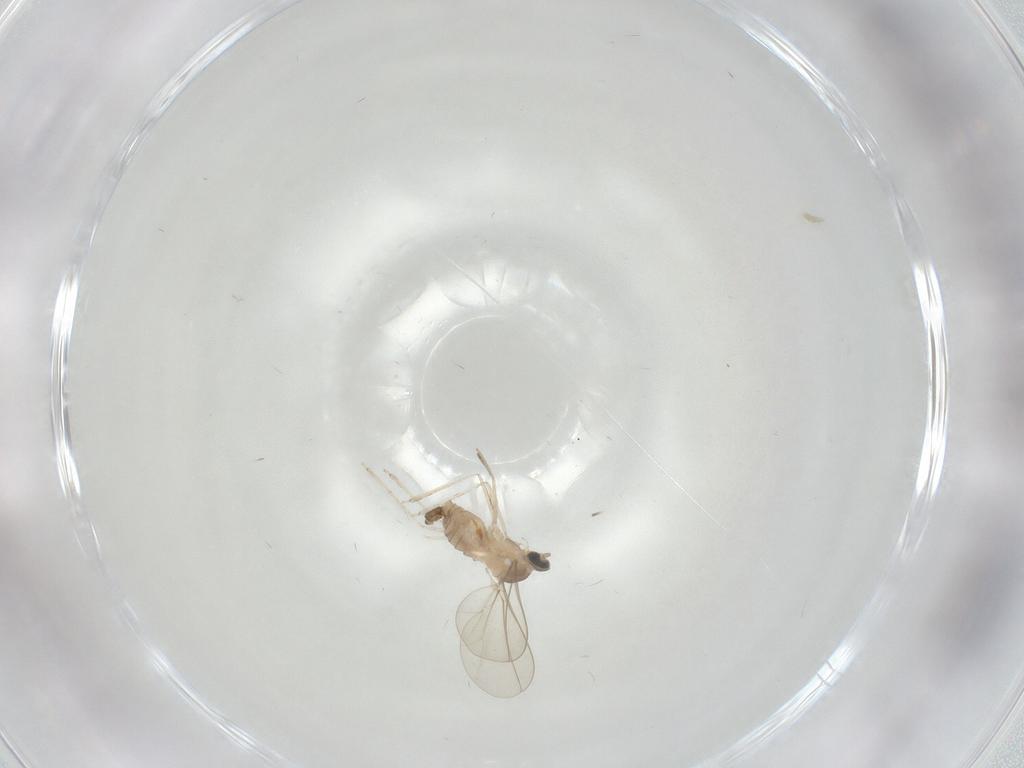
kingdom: Animalia
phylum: Arthropoda
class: Insecta
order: Diptera
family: Cecidomyiidae
